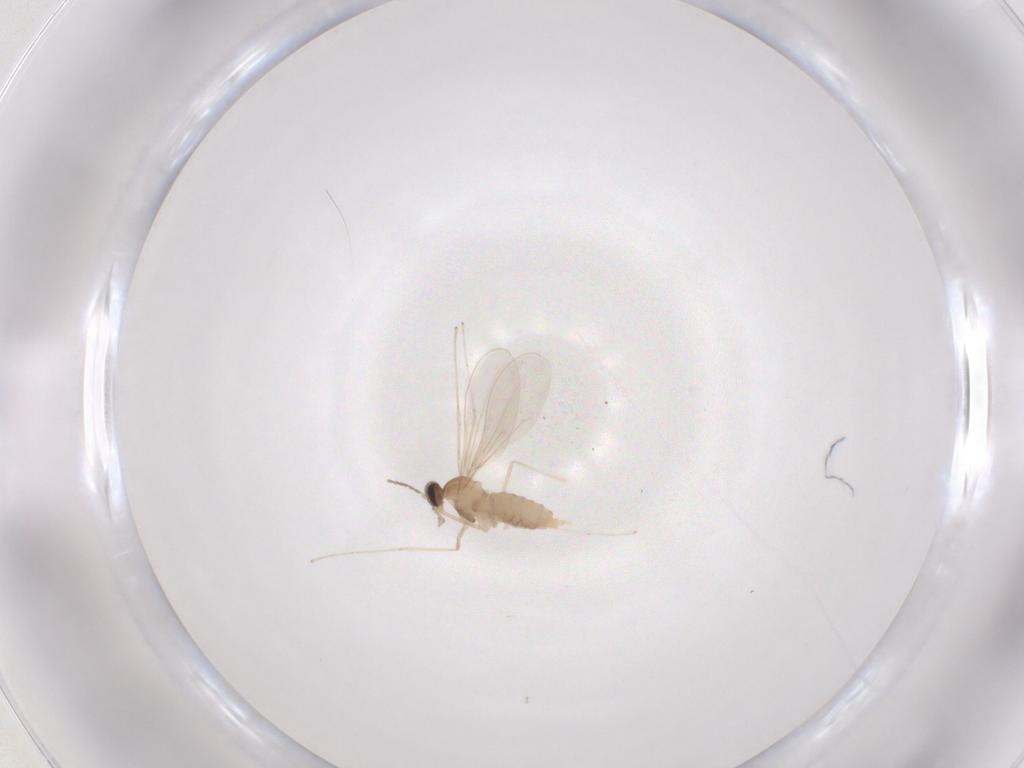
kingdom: Animalia
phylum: Arthropoda
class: Insecta
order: Diptera
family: Cecidomyiidae
